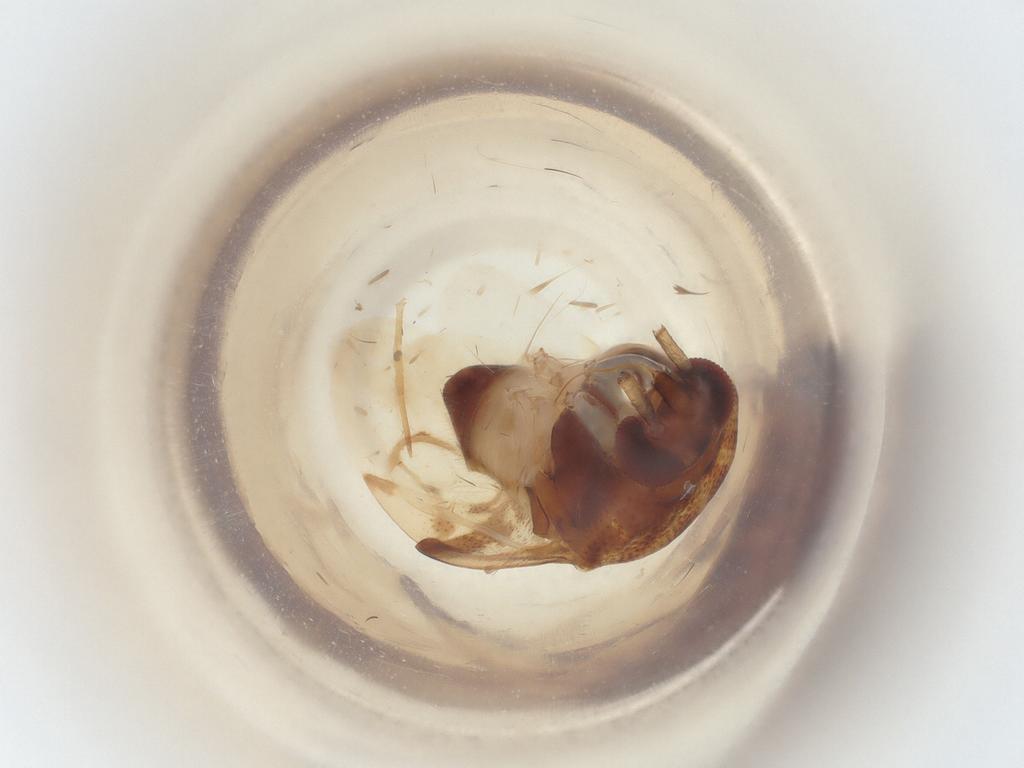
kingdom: Animalia
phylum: Arthropoda
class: Insecta
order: Hemiptera
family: Miridae
